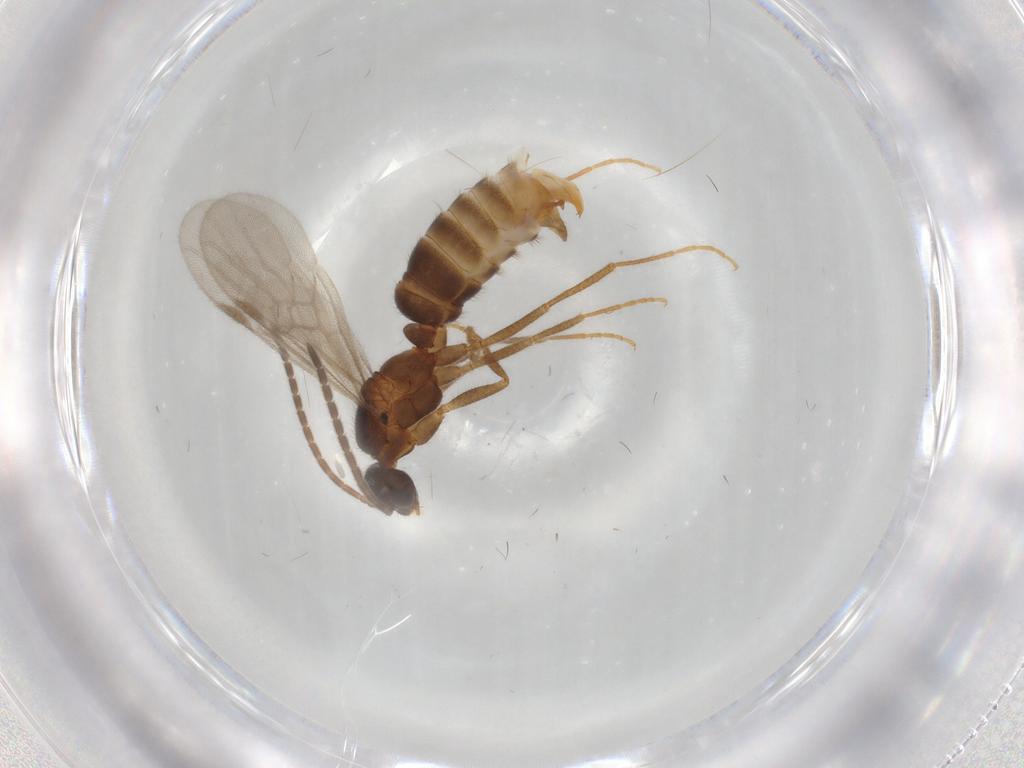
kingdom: Animalia
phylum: Arthropoda
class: Insecta
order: Hymenoptera
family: Formicidae
